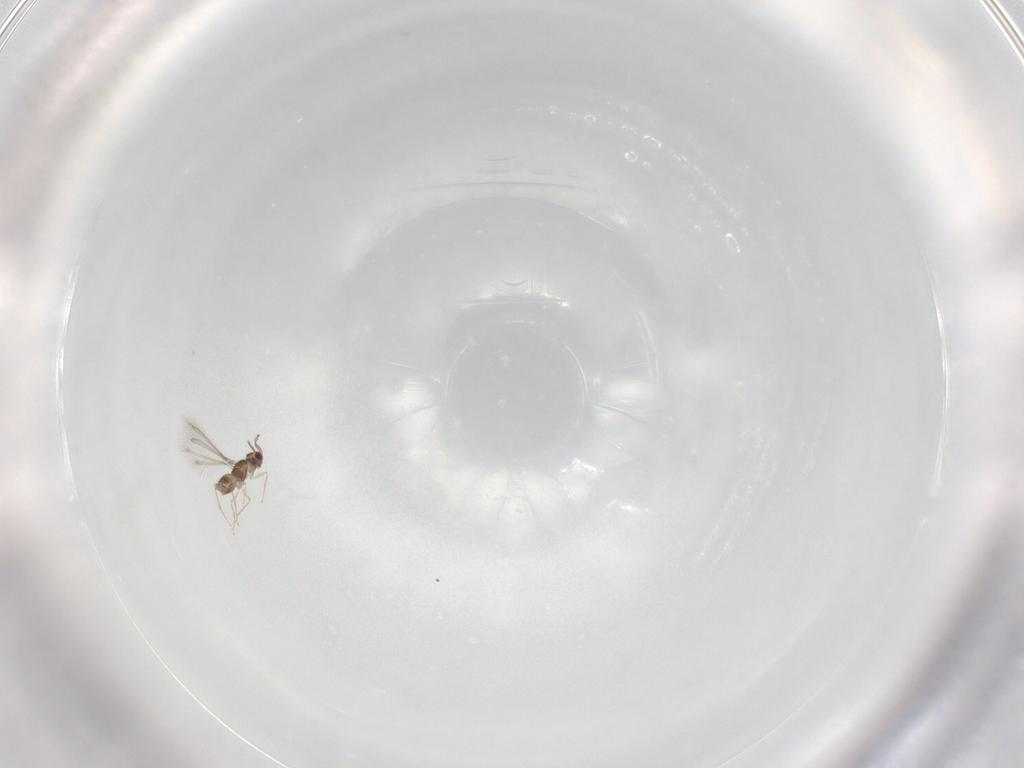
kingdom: Animalia
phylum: Arthropoda
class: Insecta
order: Hymenoptera
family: Mymaridae
